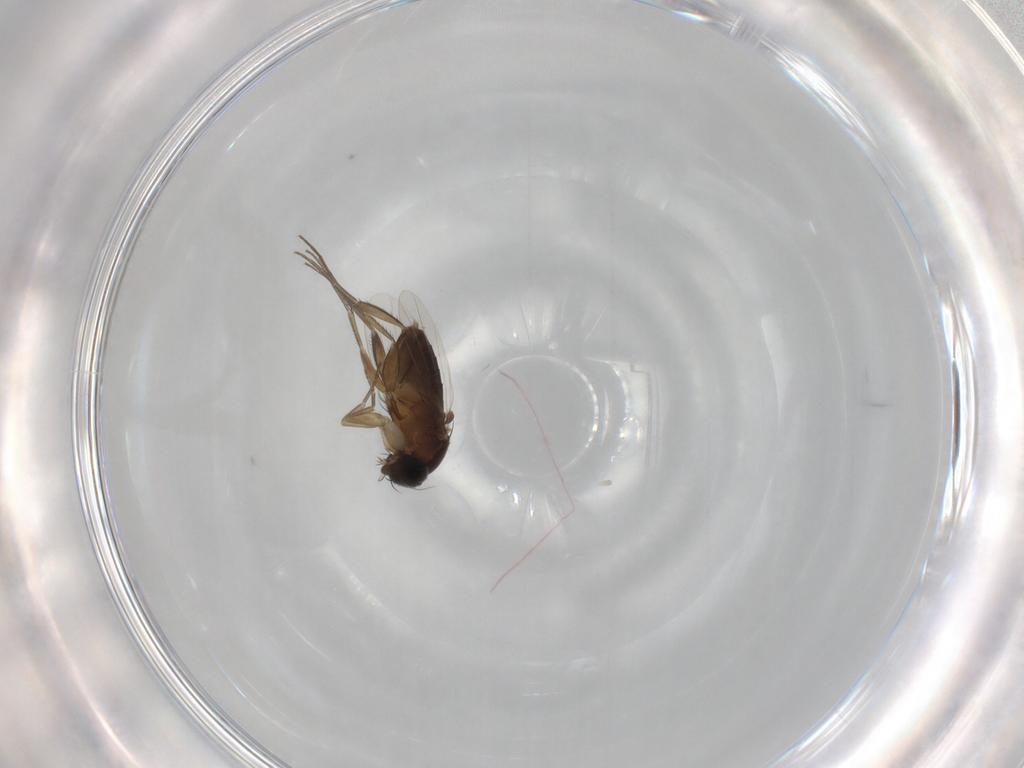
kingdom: Animalia
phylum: Arthropoda
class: Insecta
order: Diptera
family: Phoridae
